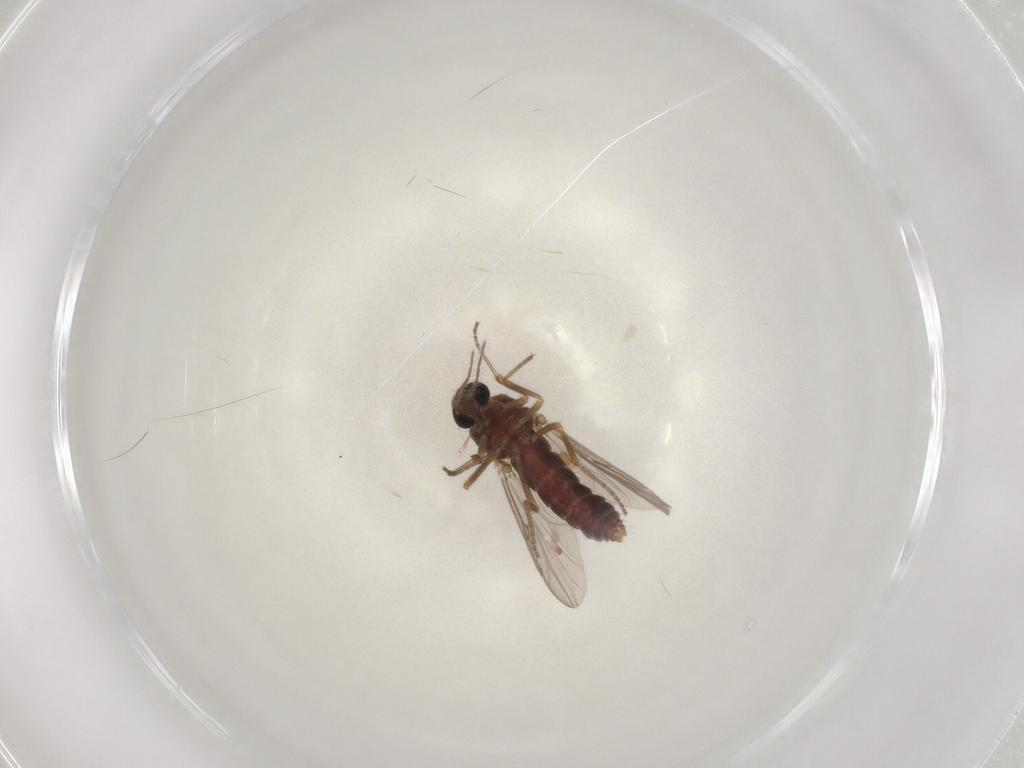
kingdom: Animalia
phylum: Arthropoda
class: Insecta
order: Diptera
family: Ceratopogonidae
